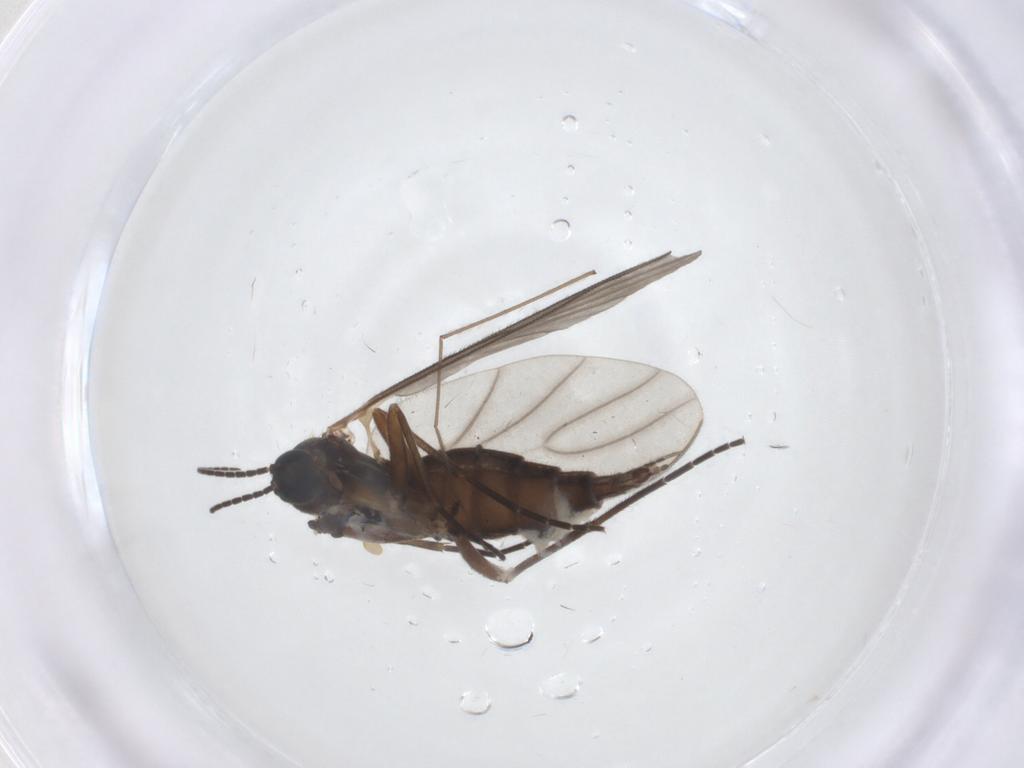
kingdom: Animalia
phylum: Arthropoda
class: Insecta
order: Diptera
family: Sciaridae
